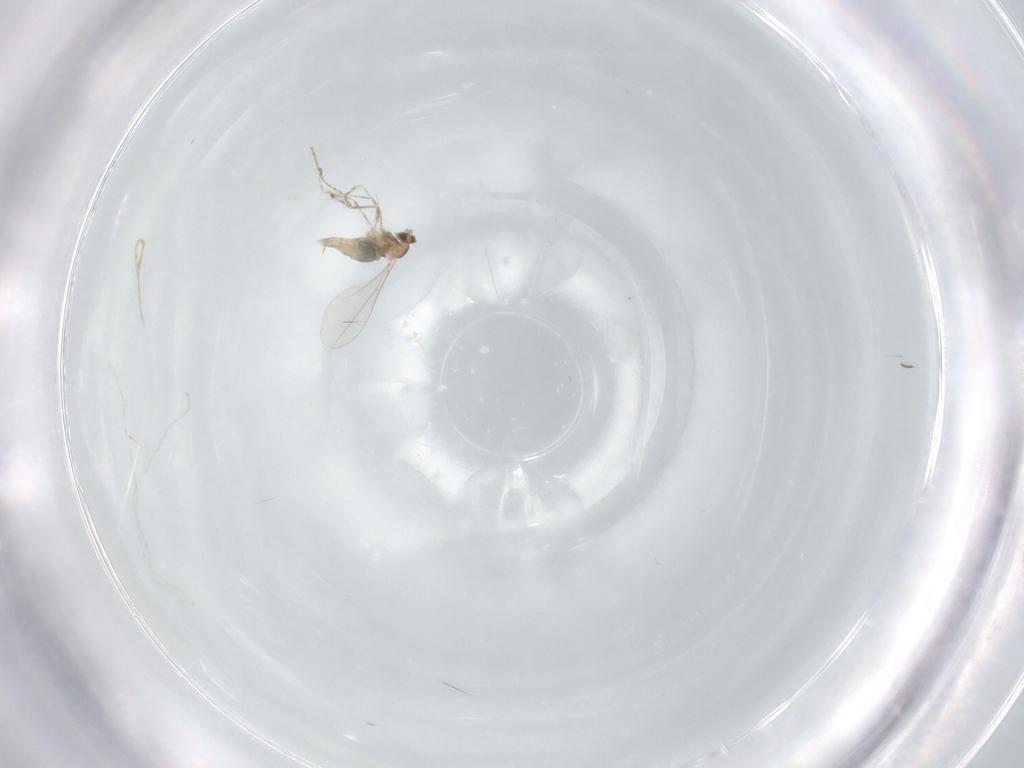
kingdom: Animalia
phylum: Arthropoda
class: Insecta
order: Diptera
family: Cecidomyiidae
